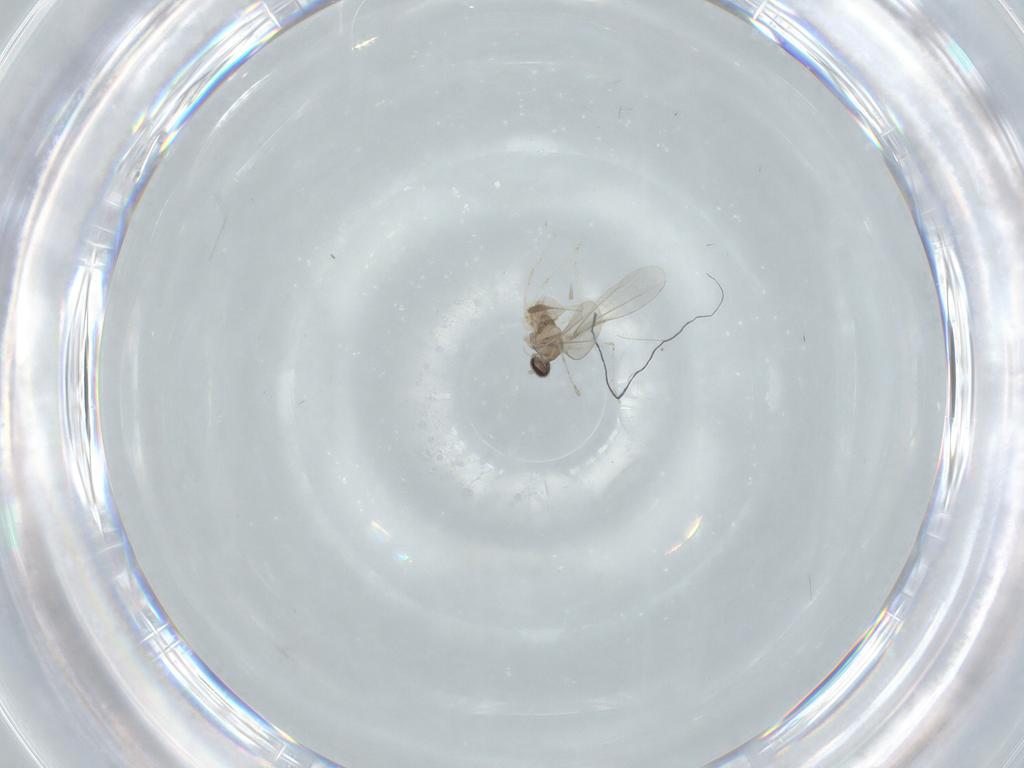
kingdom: Animalia
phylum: Arthropoda
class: Insecta
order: Diptera
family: Cecidomyiidae
